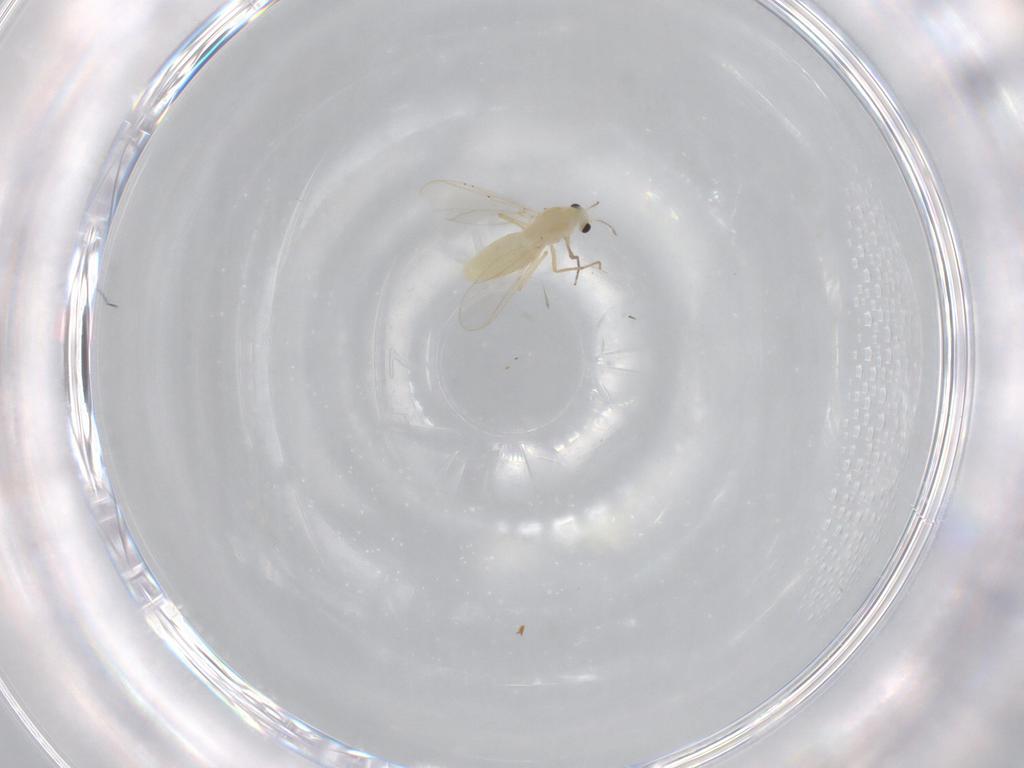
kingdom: Animalia
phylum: Arthropoda
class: Insecta
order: Diptera
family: Chironomidae
